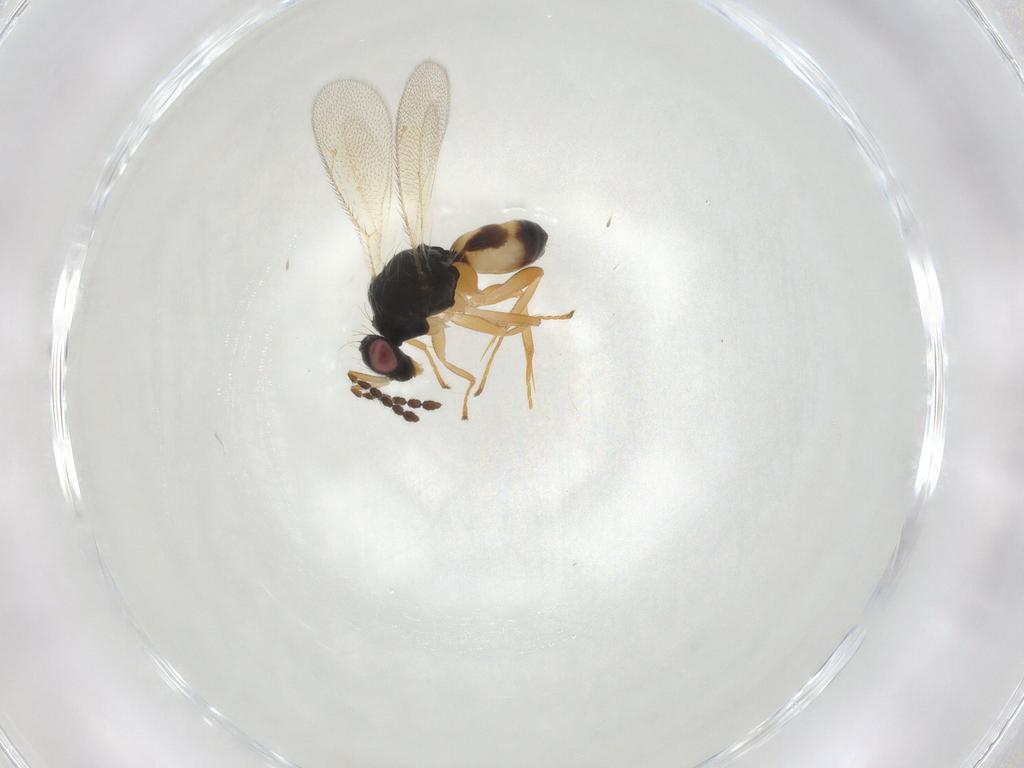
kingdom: Animalia
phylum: Arthropoda
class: Insecta
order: Hymenoptera
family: Eulophidae
